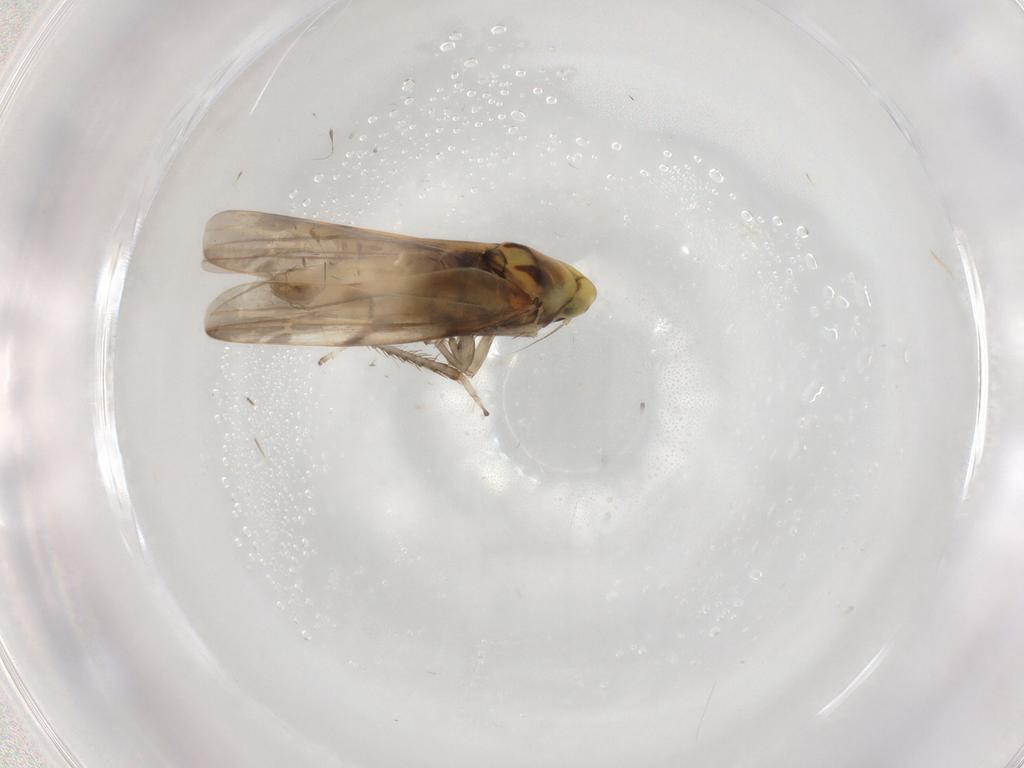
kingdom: Animalia
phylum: Arthropoda
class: Insecta
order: Hemiptera
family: Cicadellidae
